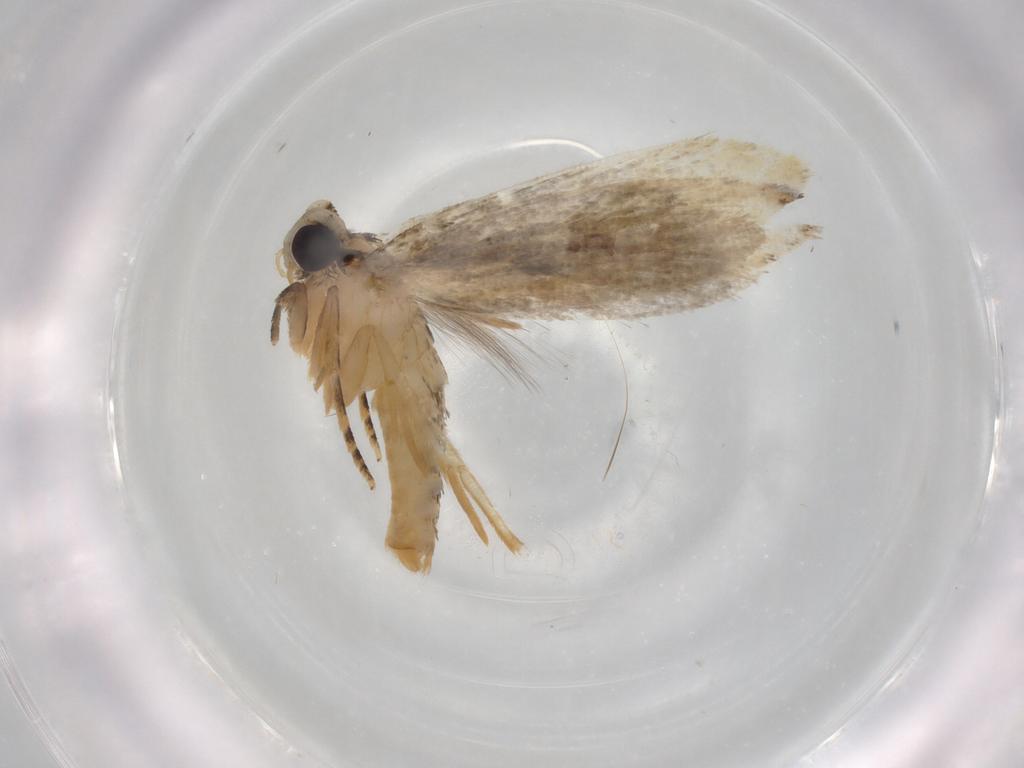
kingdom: Animalia
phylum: Arthropoda
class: Insecta
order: Lepidoptera
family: Tineidae
